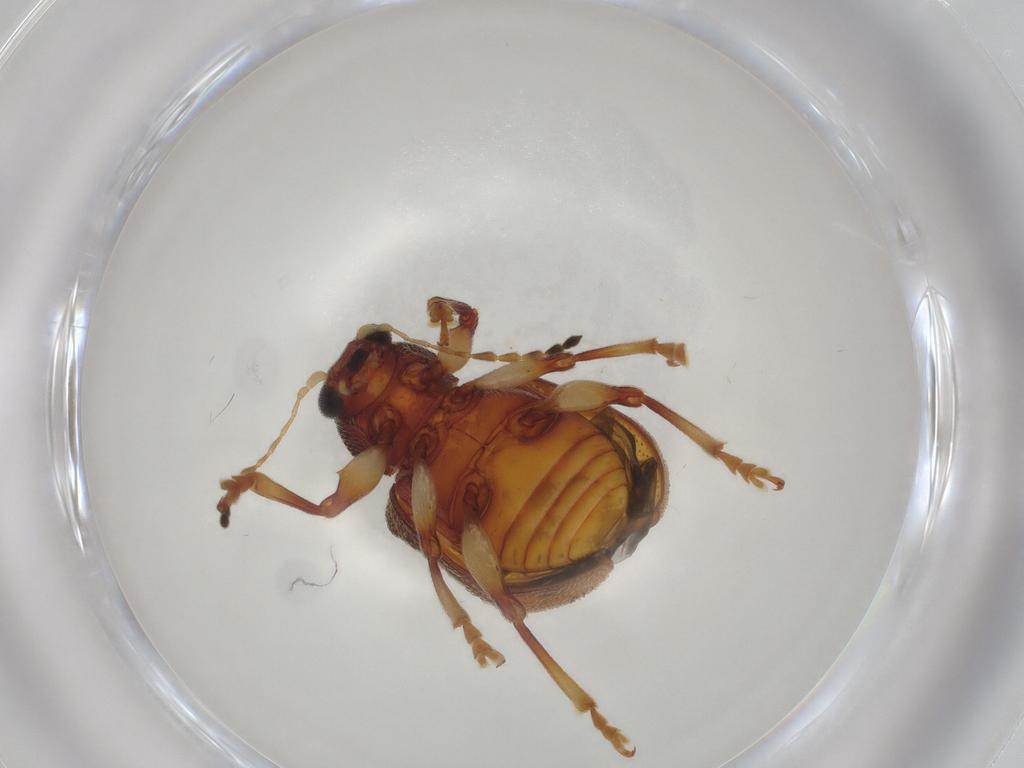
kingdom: Animalia
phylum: Arthropoda
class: Insecta
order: Coleoptera
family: Chrysomelidae
